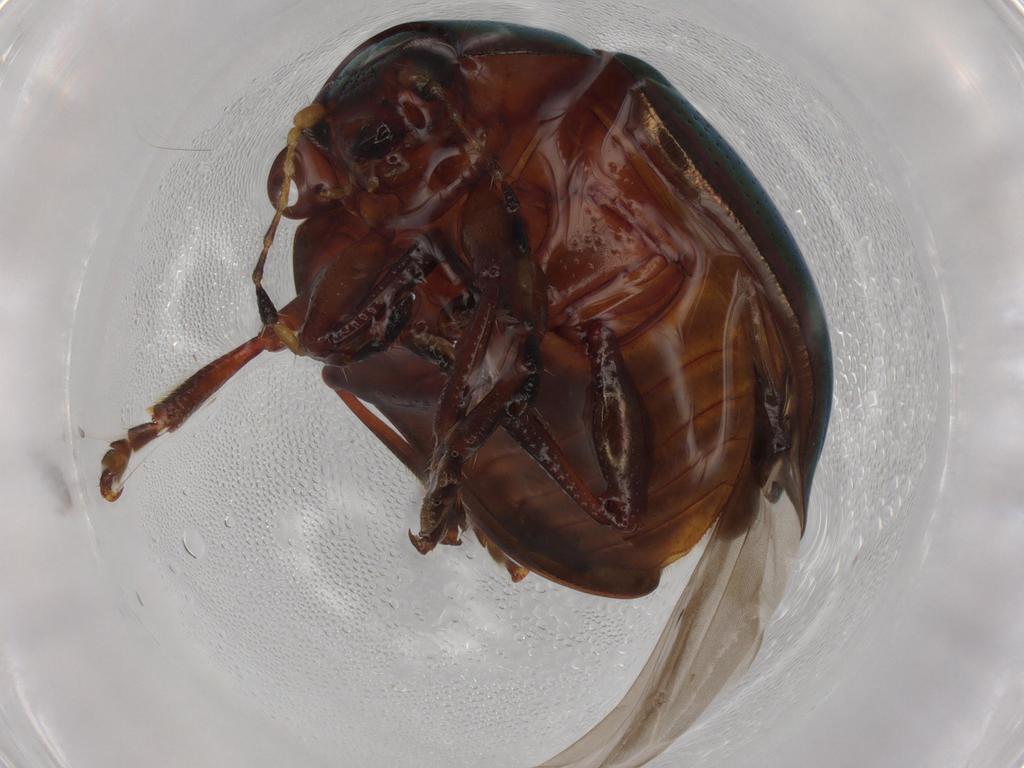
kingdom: Animalia
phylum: Arthropoda
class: Insecta
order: Coleoptera
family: Chrysomelidae
